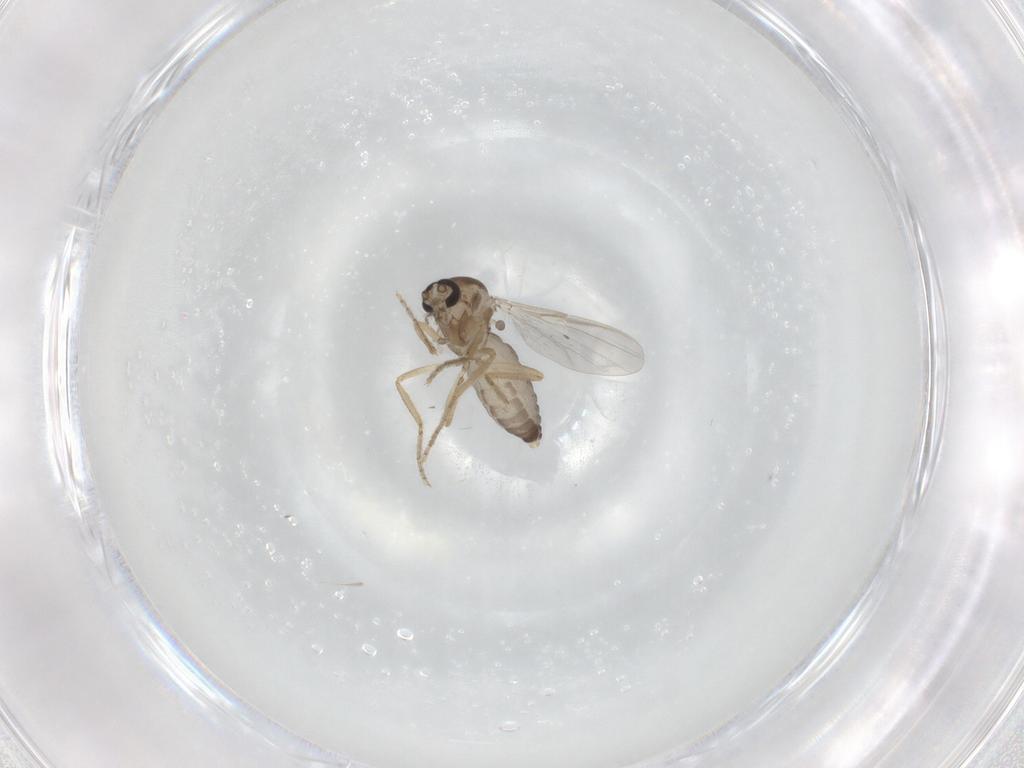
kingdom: Animalia
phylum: Arthropoda
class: Insecta
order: Diptera
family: Ceratopogonidae
